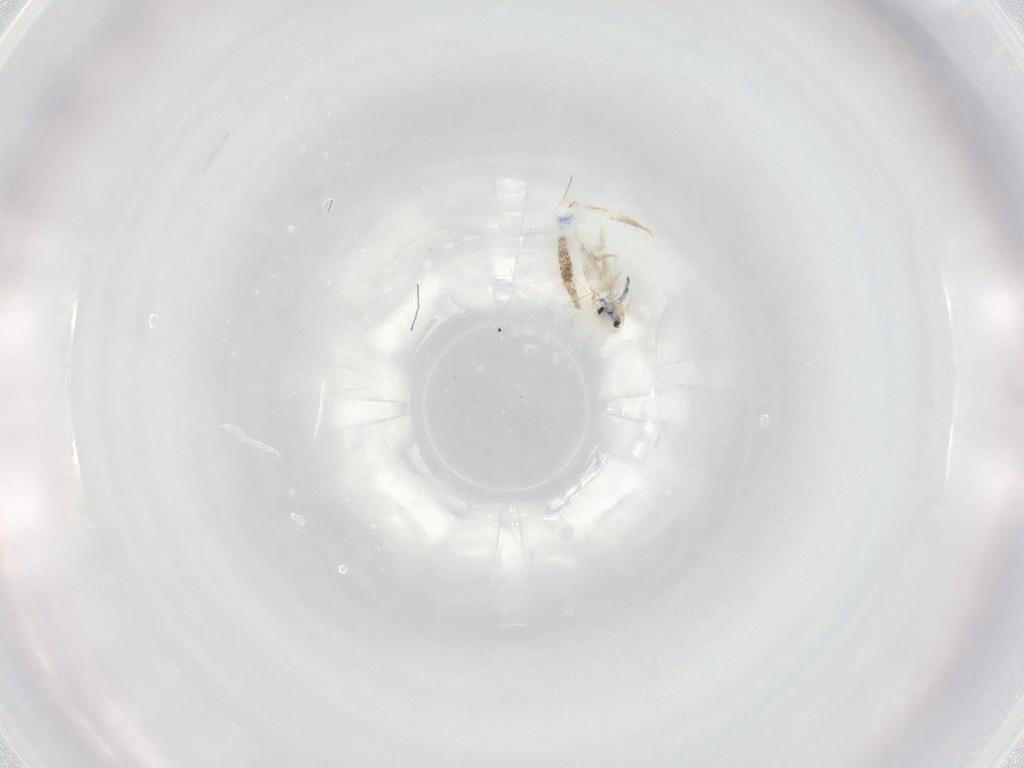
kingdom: Animalia
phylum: Arthropoda
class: Collembola
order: Entomobryomorpha
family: Entomobryidae
